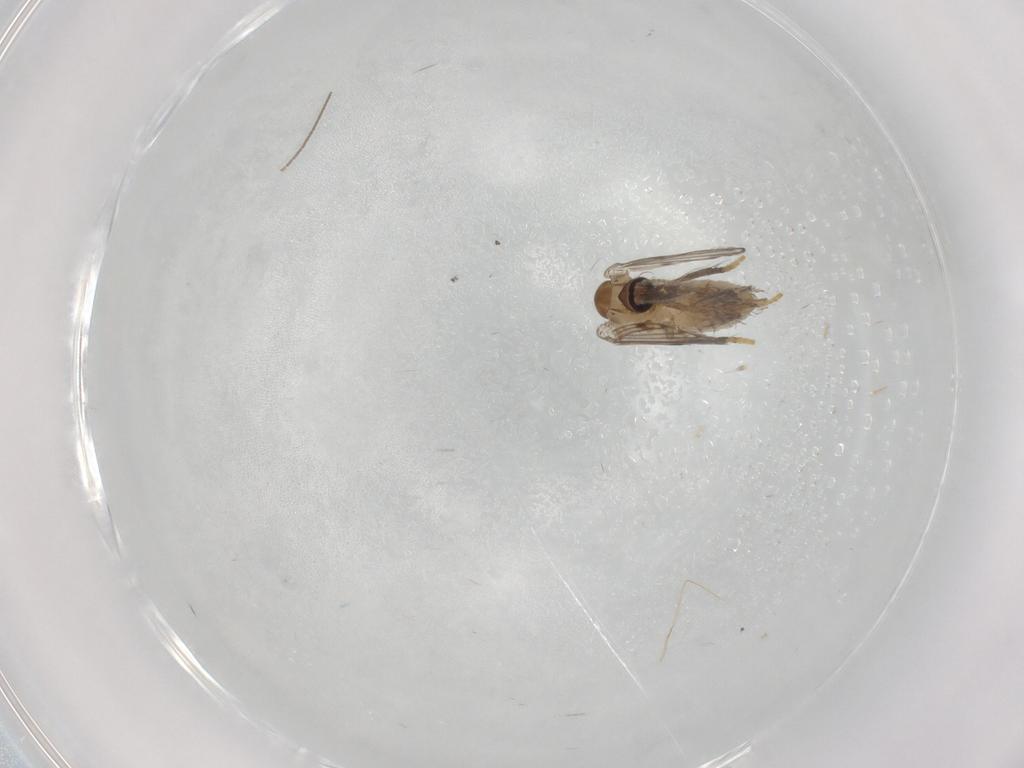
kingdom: Animalia
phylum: Arthropoda
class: Insecta
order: Diptera
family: Psychodidae
